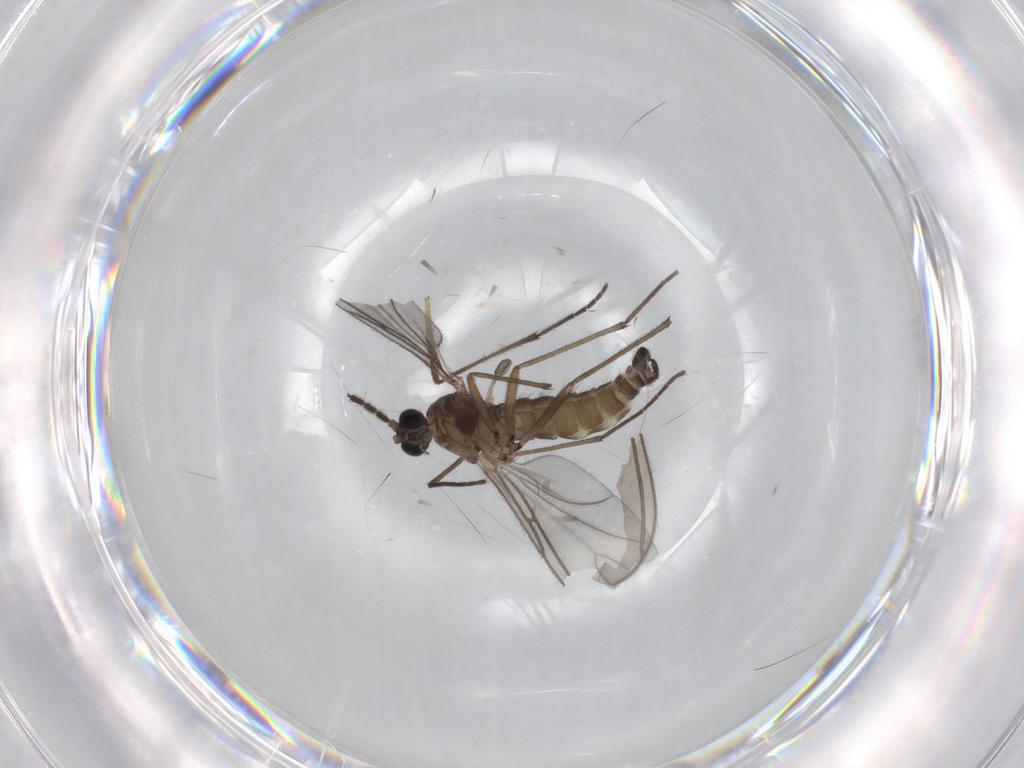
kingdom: Animalia
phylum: Arthropoda
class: Insecta
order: Diptera
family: Sciaridae
